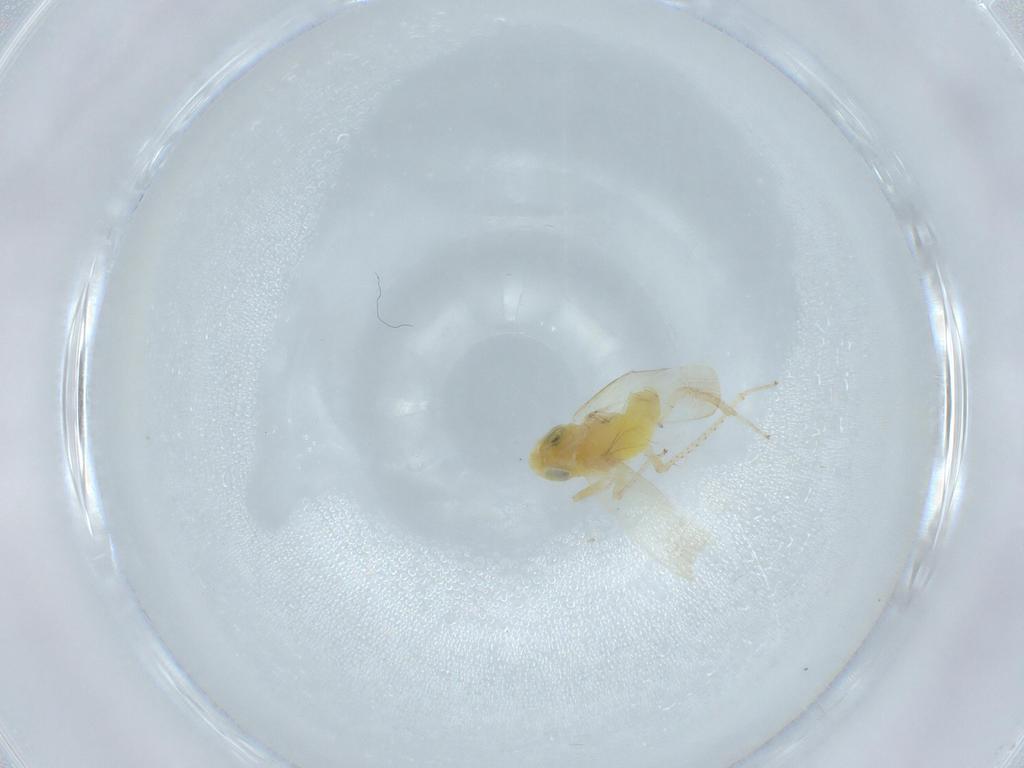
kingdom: Animalia
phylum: Arthropoda
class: Insecta
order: Hemiptera
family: Cicadellidae
